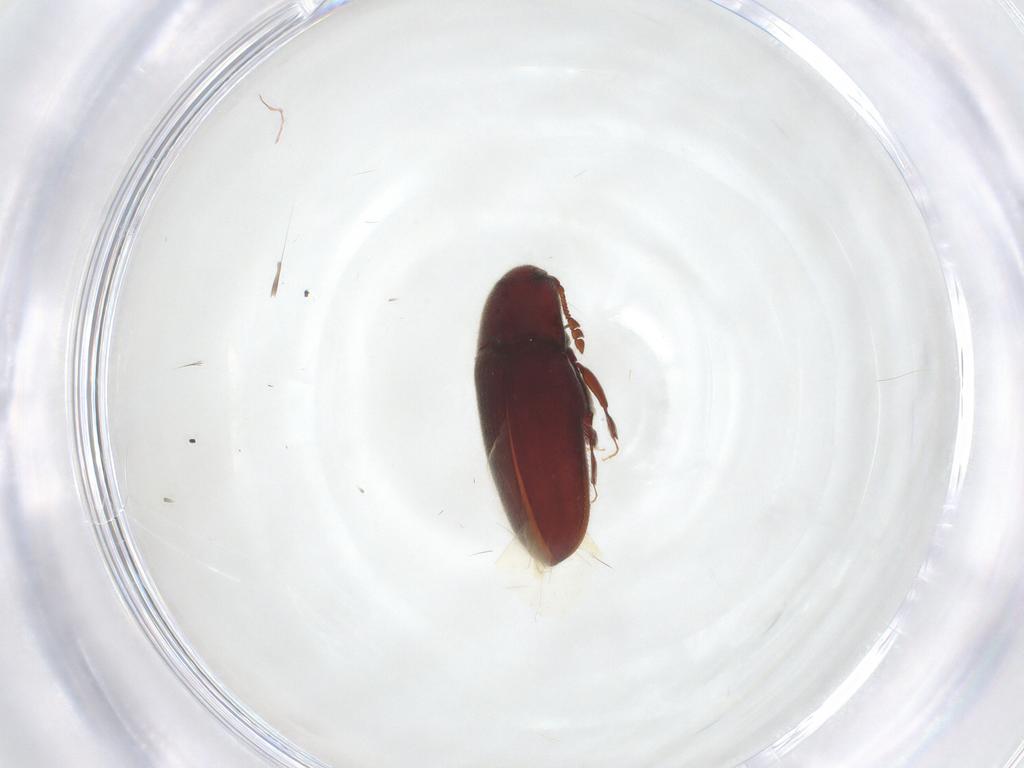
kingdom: Animalia
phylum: Arthropoda
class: Insecta
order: Coleoptera
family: Throscidae
